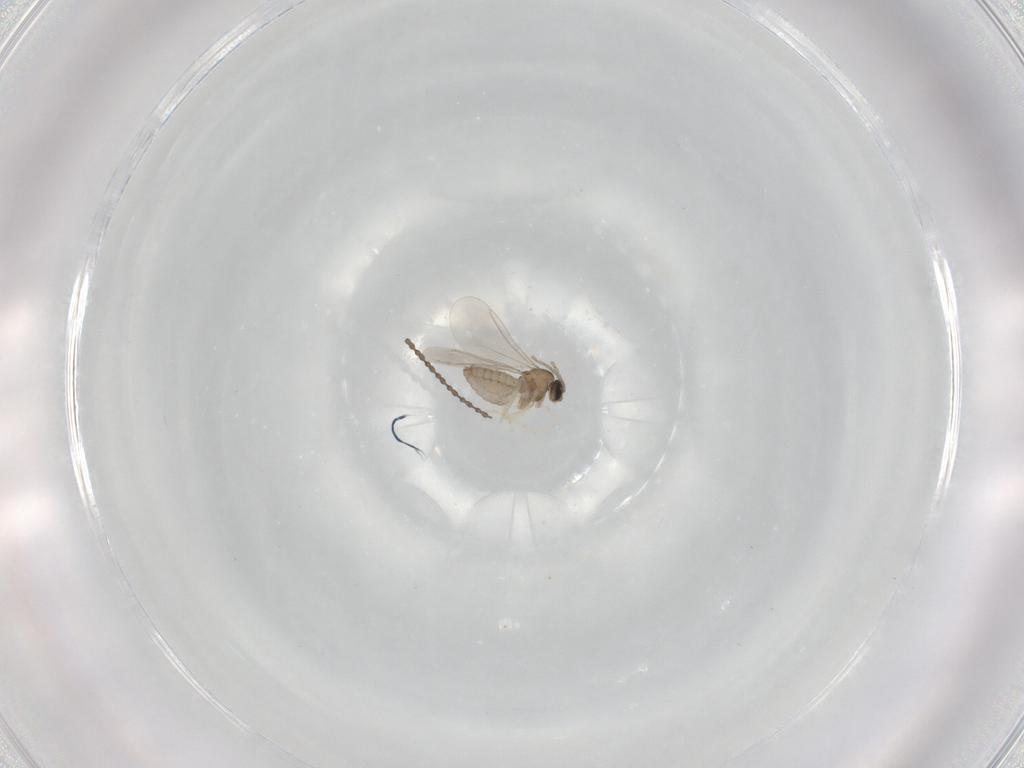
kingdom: Animalia
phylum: Arthropoda
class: Insecta
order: Diptera
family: Cecidomyiidae
